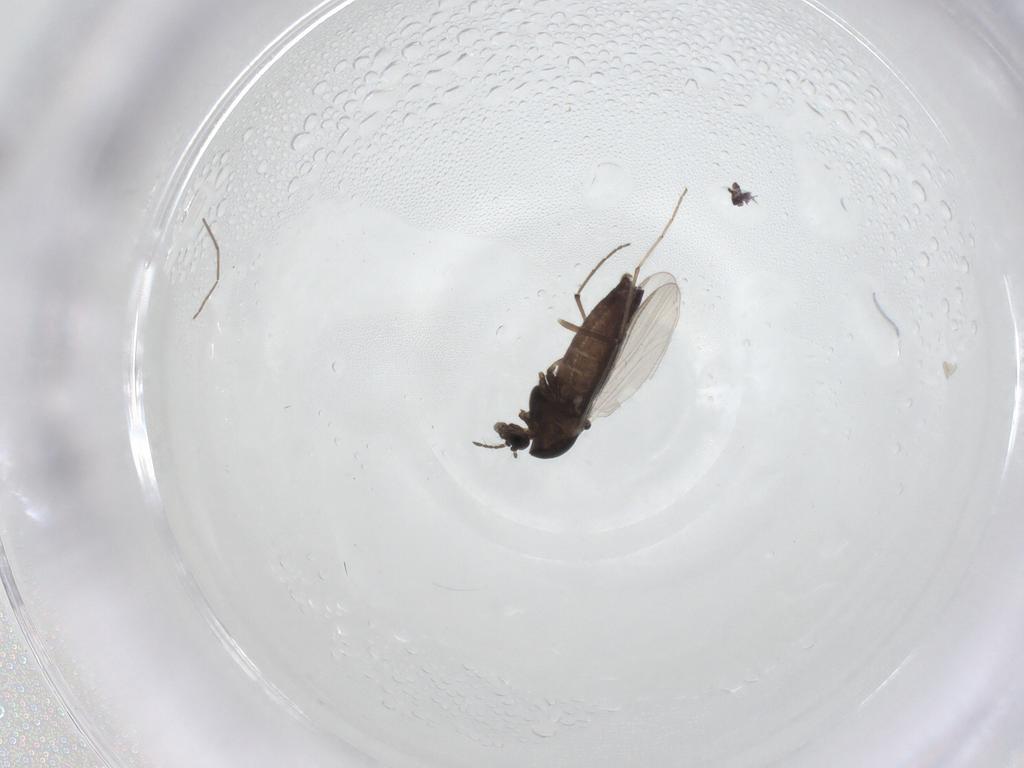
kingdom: Animalia
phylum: Arthropoda
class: Insecta
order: Diptera
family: Chironomidae
